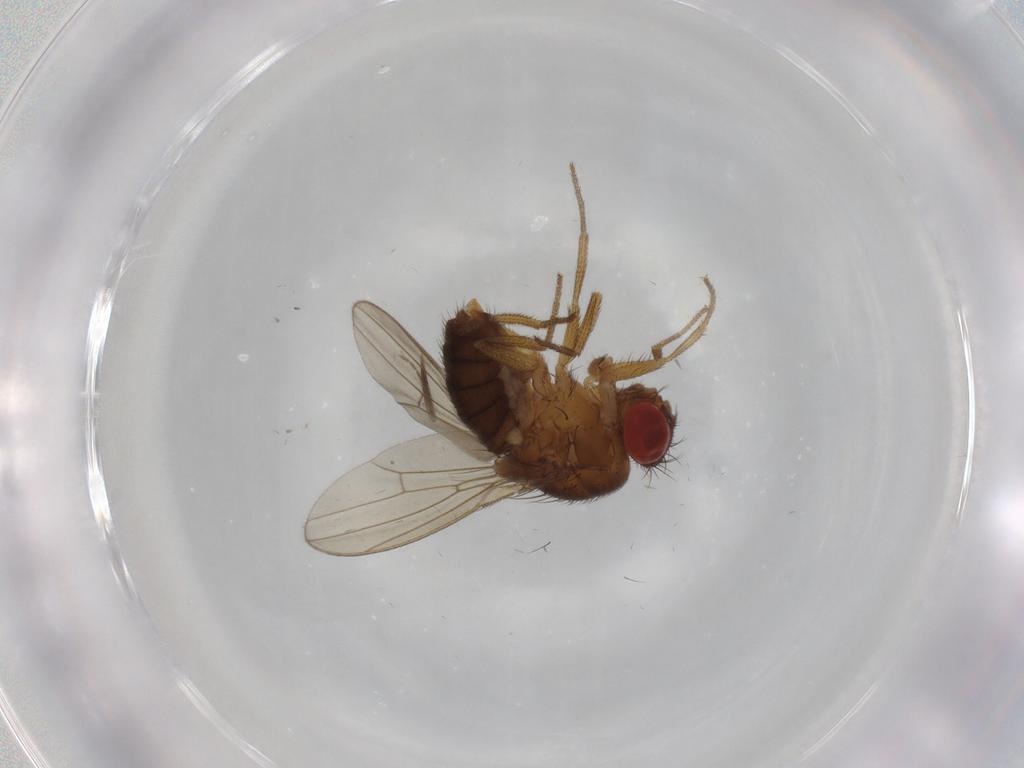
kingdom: Animalia
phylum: Arthropoda
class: Insecta
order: Diptera
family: Drosophilidae
